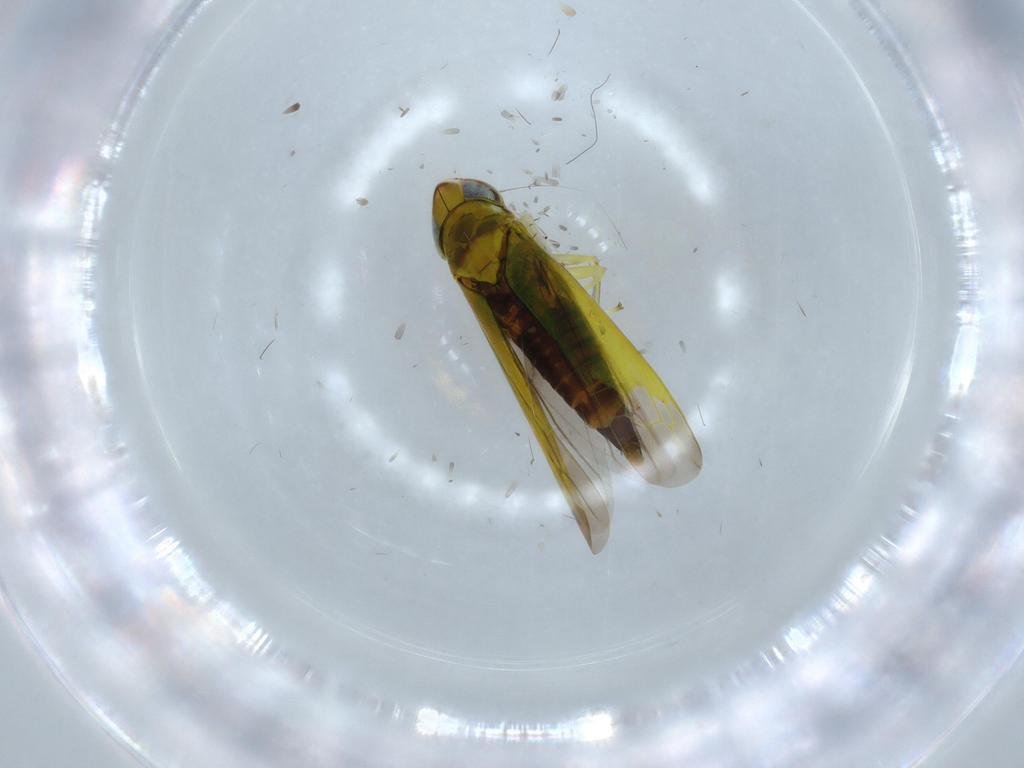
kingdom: Animalia
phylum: Arthropoda
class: Insecta
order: Hemiptera
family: Cicadellidae
